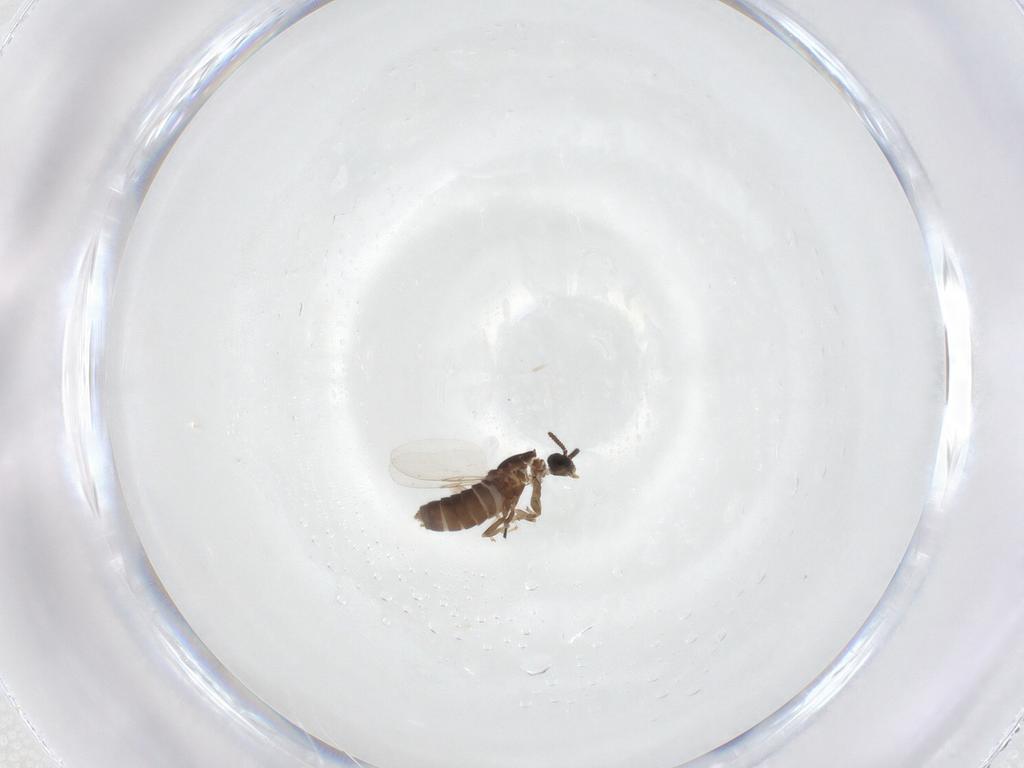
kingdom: Animalia
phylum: Arthropoda
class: Insecta
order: Diptera
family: Scatopsidae
